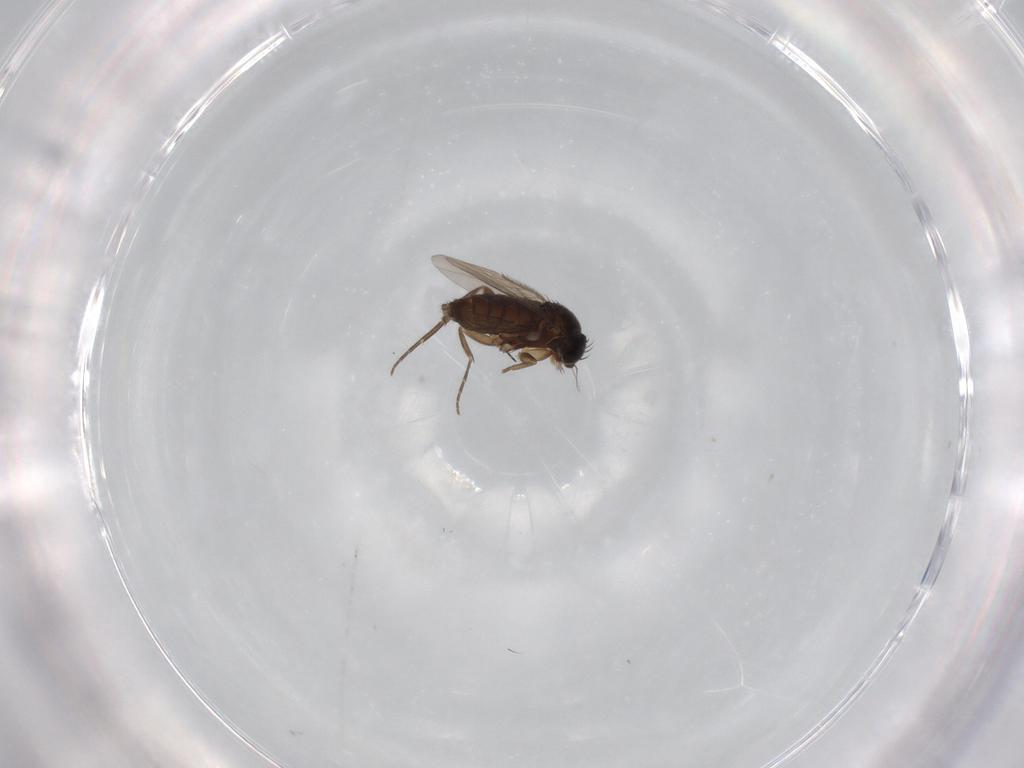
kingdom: Animalia
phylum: Arthropoda
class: Insecta
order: Diptera
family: Phoridae
